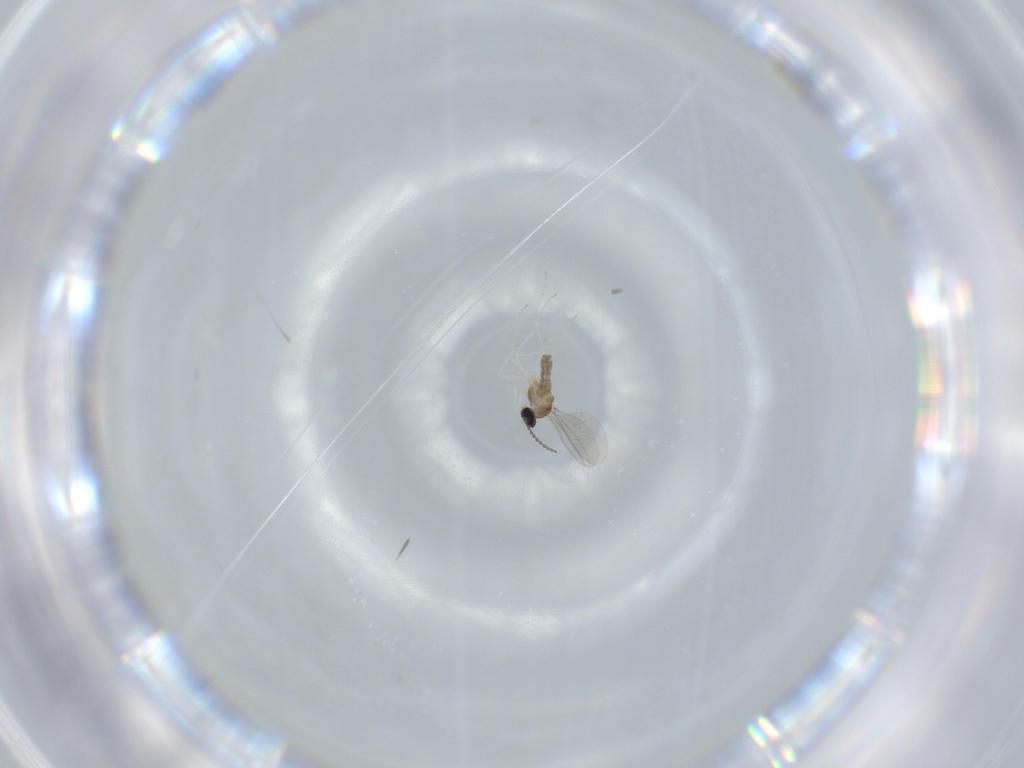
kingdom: Animalia
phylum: Arthropoda
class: Insecta
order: Diptera
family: Cecidomyiidae
